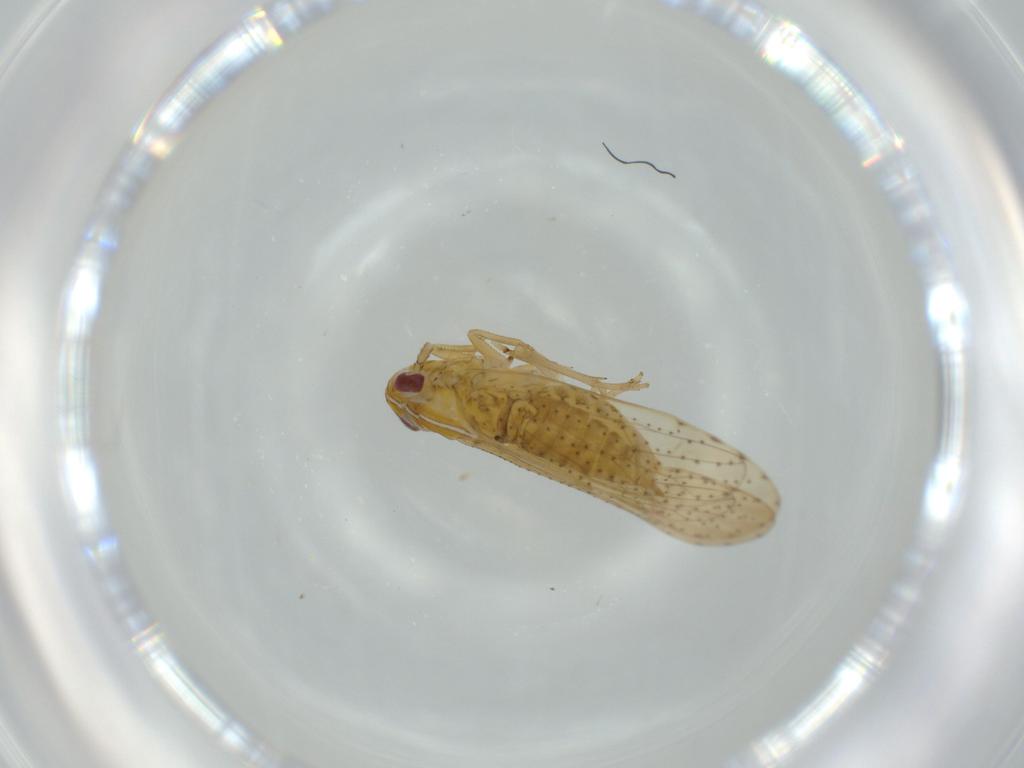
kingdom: Animalia
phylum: Arthropoda
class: Insecta
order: Hemiptera
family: Delphacidae
